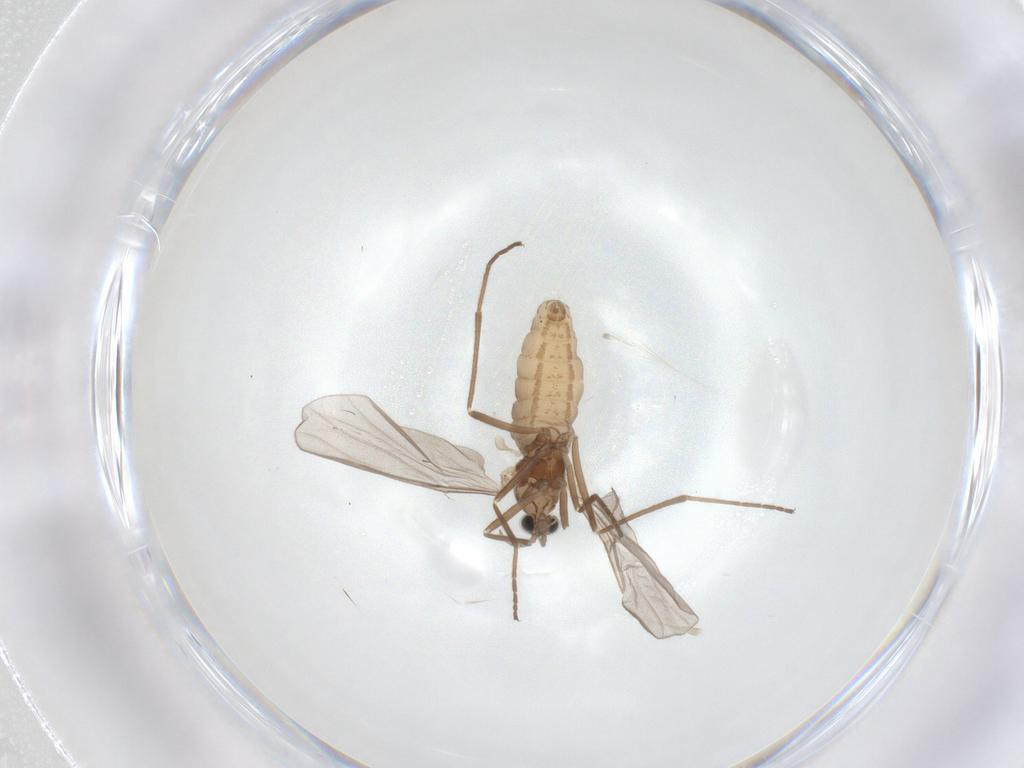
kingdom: Animalia
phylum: Arthropoda
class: Insecta
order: Diptera
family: Cecidomyiidae
